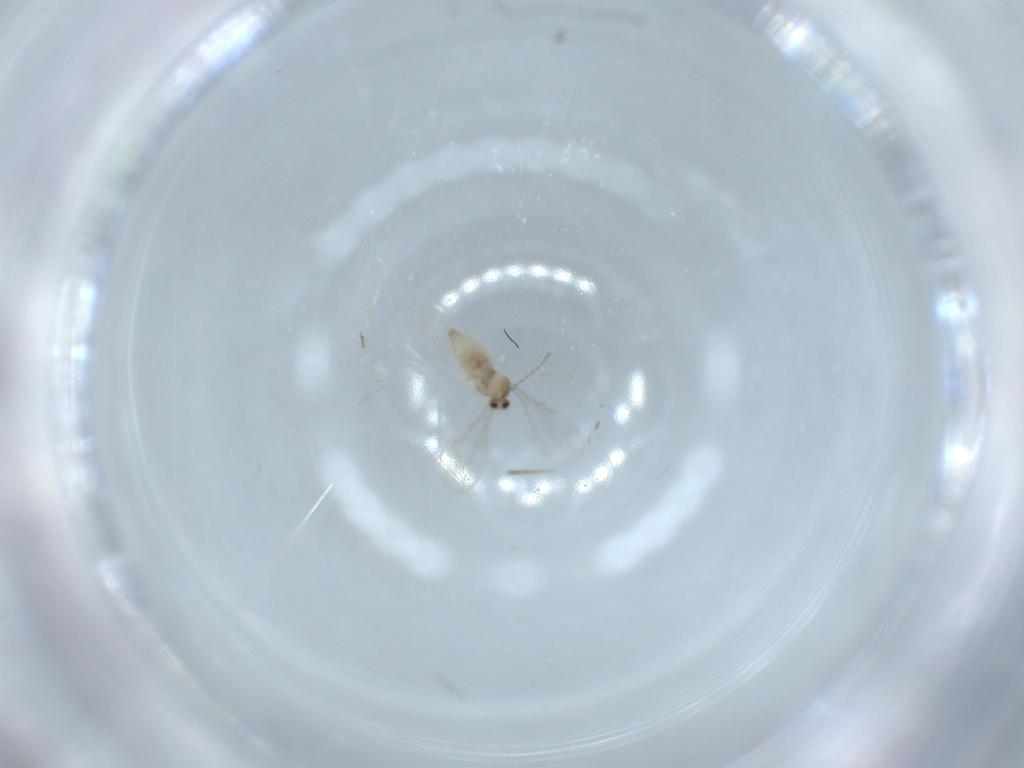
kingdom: Animalia
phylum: Arthropoda
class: Insecta
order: Diptera
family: Cecidomyiidae
